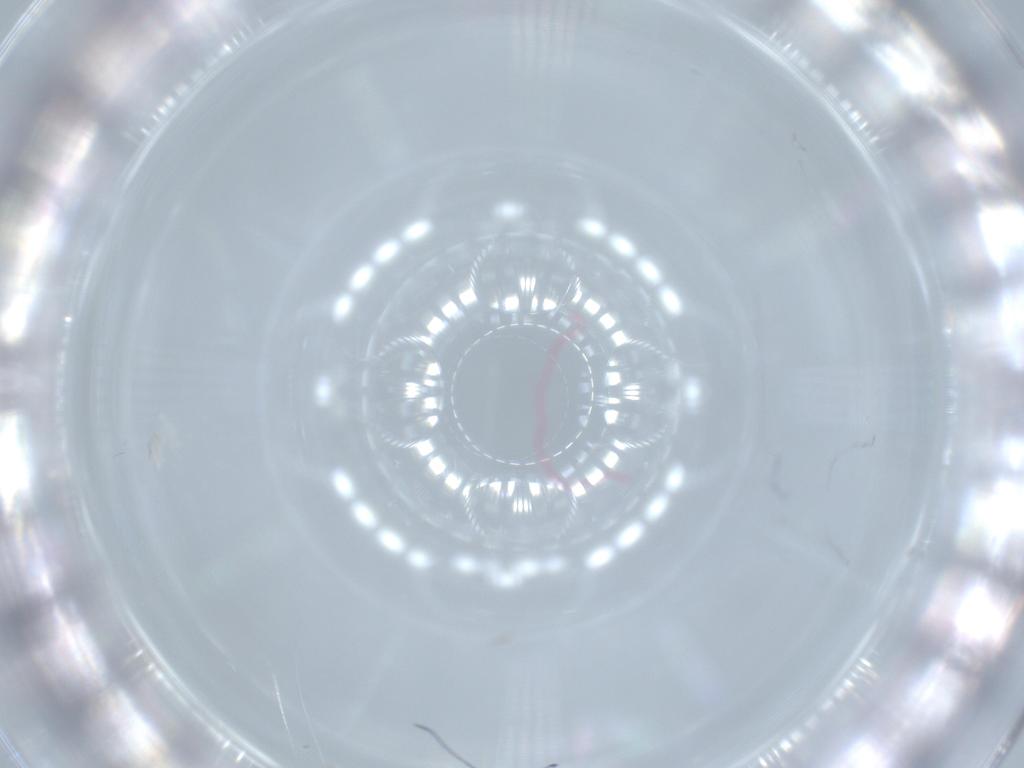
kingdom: Animalia
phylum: Arthropoda
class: Insecta
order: Diptera
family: Cecidomyiidae
